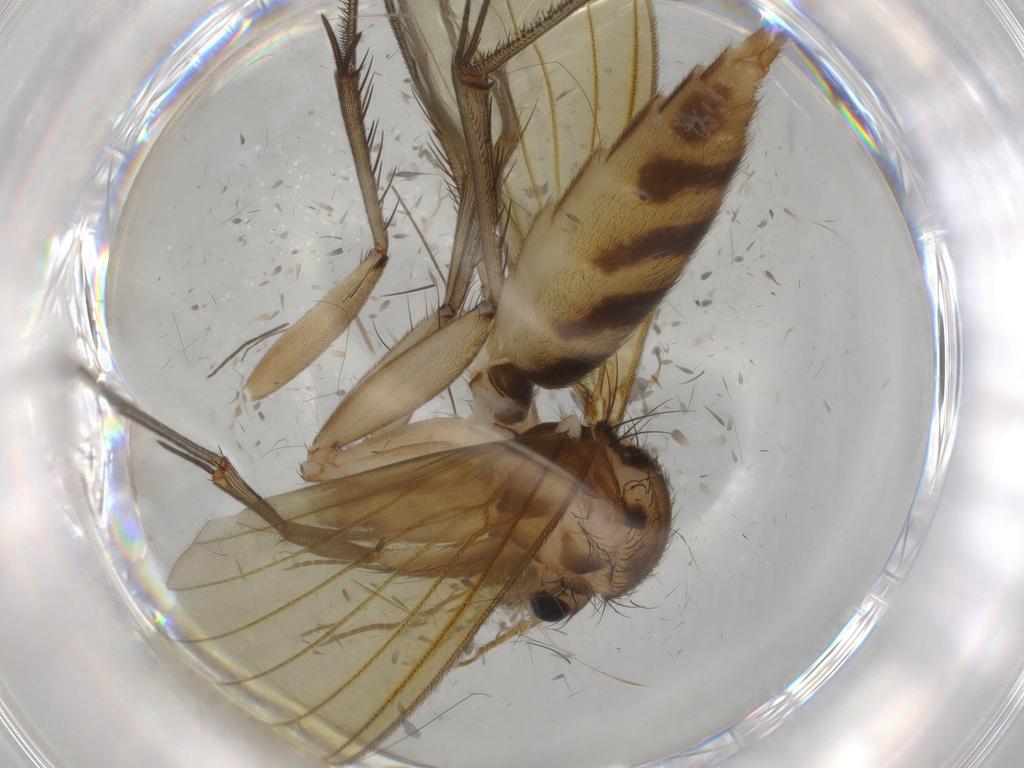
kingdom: Animalia
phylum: Arthropoda
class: Insecta
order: Diptera
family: Mycetophilidae
